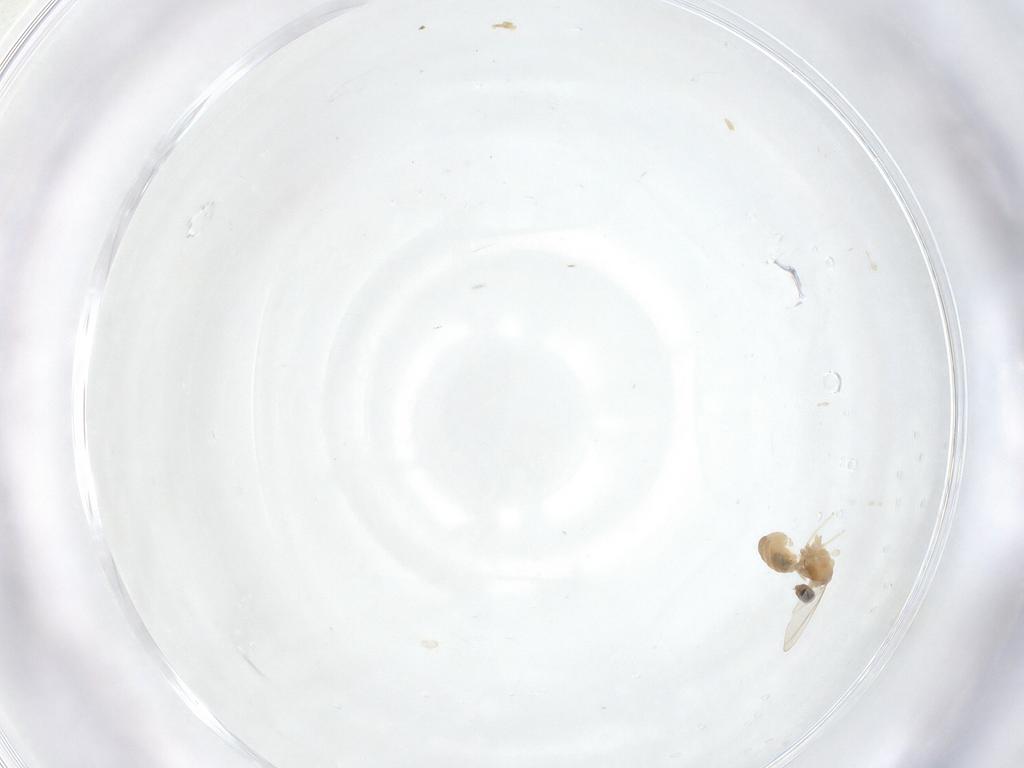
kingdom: Animalia
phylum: Arthropoda
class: Insecta
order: Diptera
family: Cecidomyiidae
